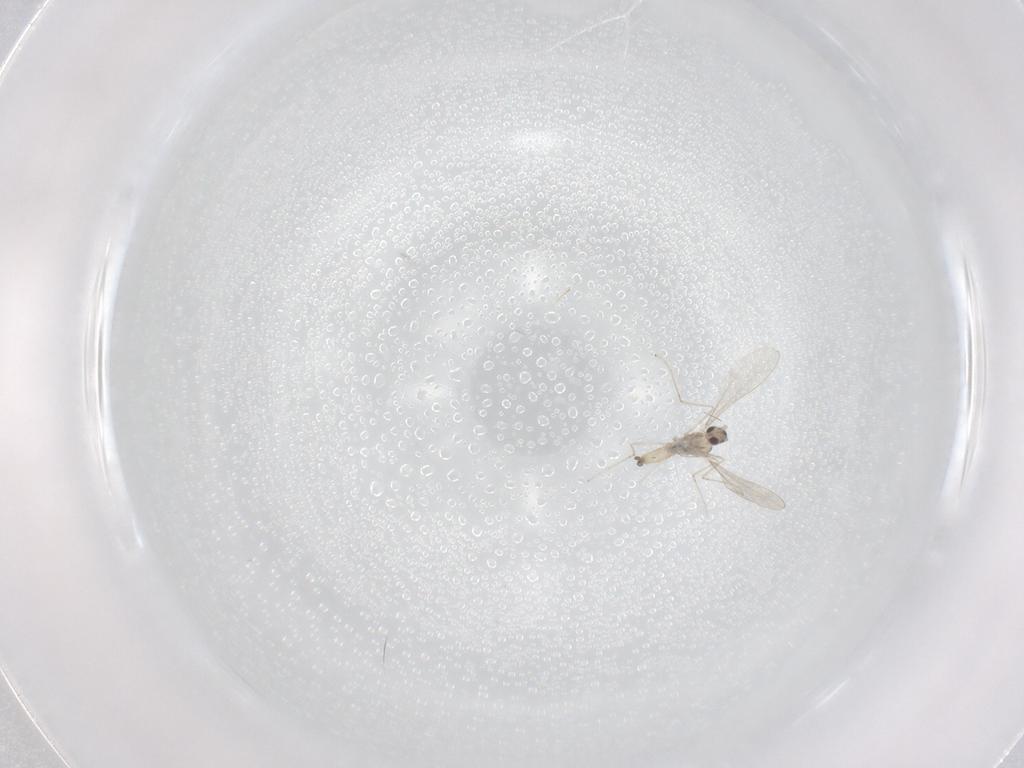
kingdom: Animalia
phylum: Arthropoda
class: Insecta
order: Diptera
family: Cecidomyiidae
